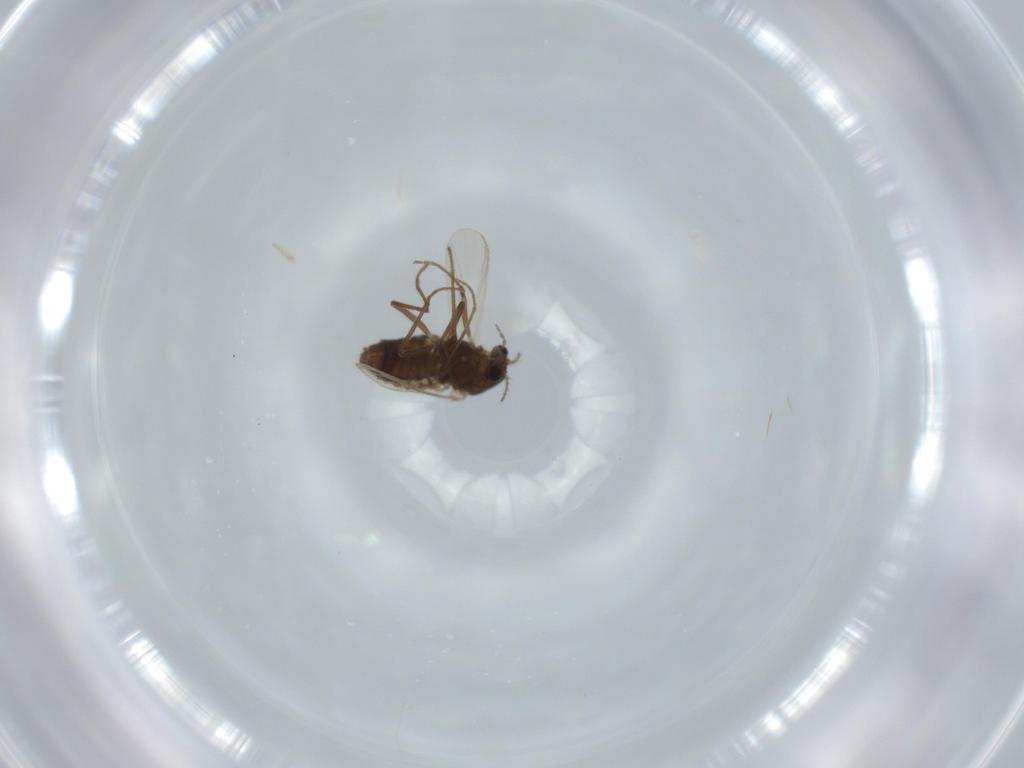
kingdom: Animalia
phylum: Arthropoda
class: Insecta
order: Diptera
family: Chironomidae
